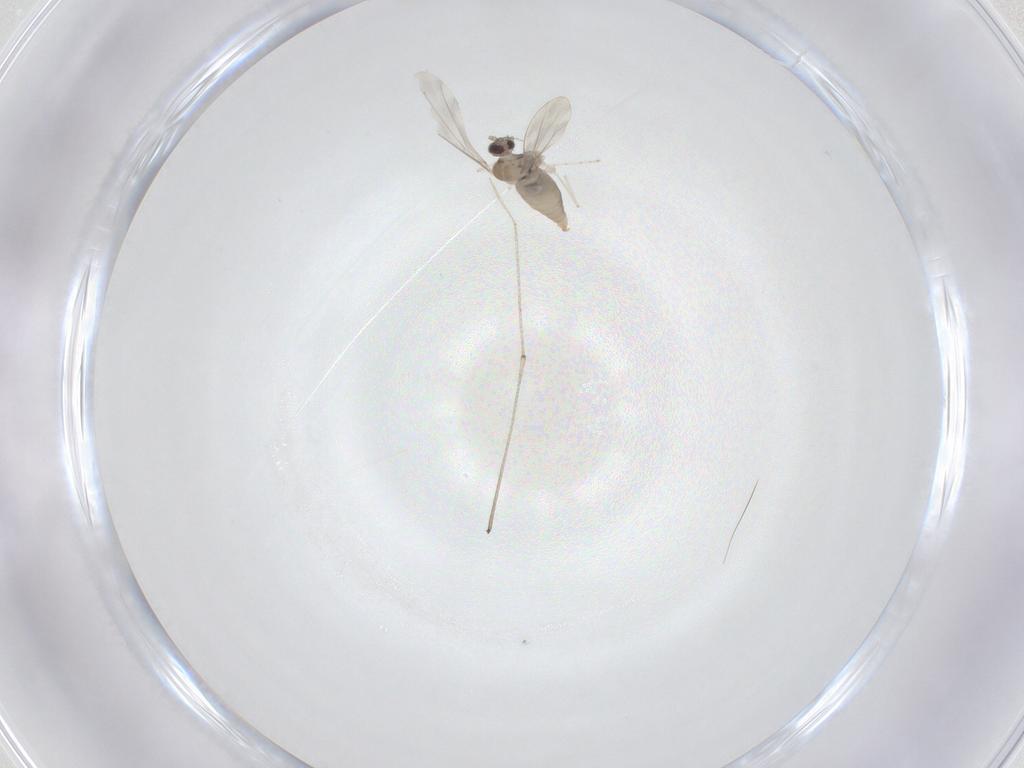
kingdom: Animalia
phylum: Arthropoda
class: Insecta
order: Diptera
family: Cecidomyiidae
